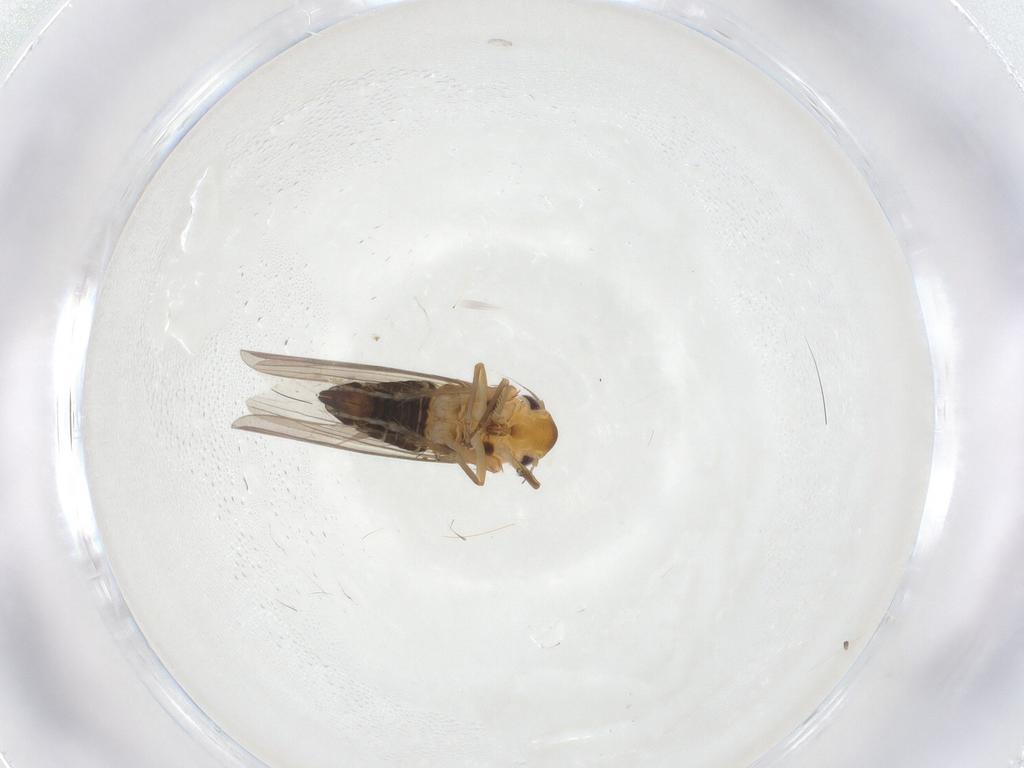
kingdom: Animalia
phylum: Arthropoda
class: Insecta
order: Hemiptera
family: Cicadellidae
